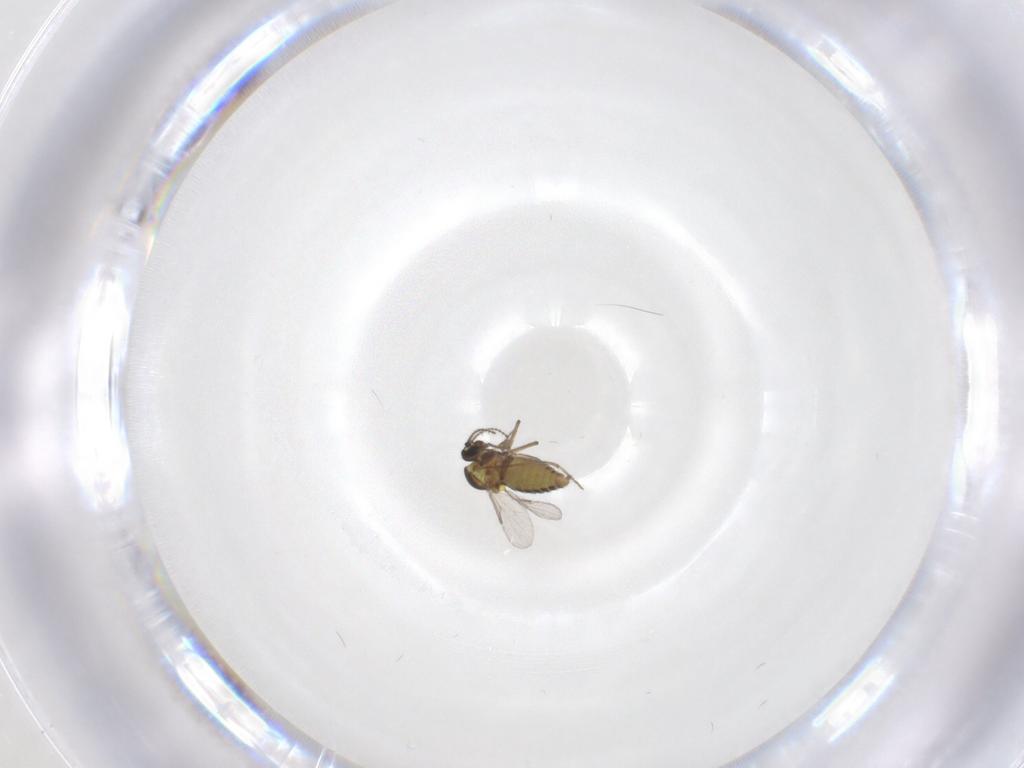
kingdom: Animalia
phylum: Arthropoda
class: Insecta
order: Diptera
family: Ceratopogonidae
